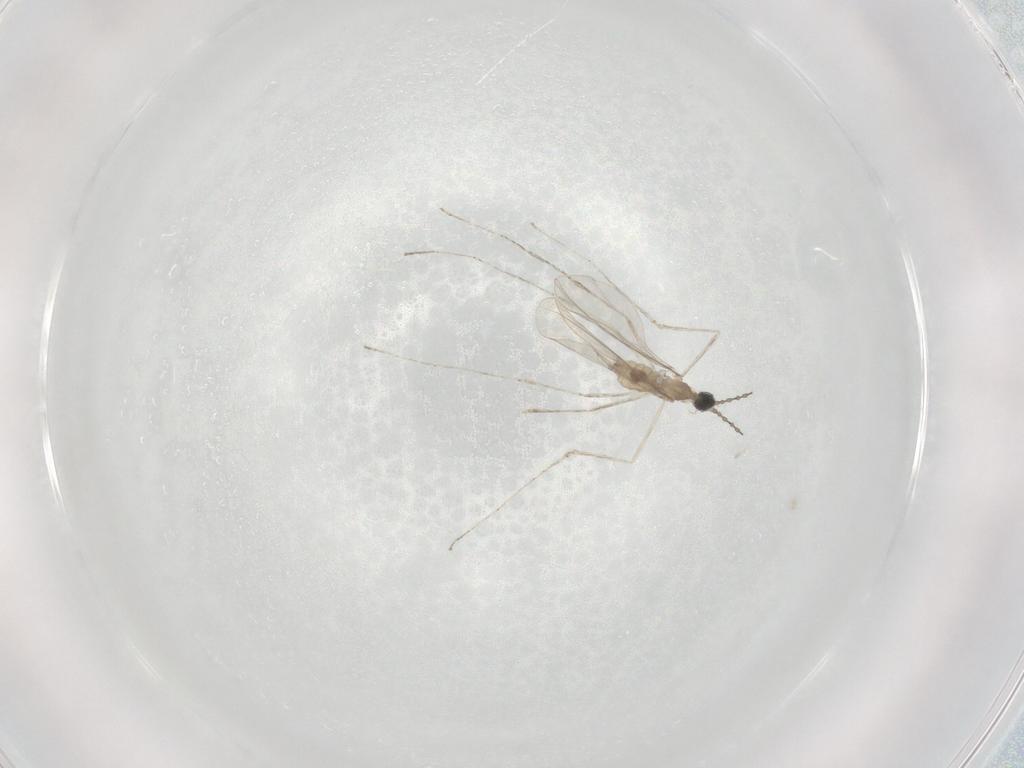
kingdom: Animalia
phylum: Arthropoda
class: Insecta
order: Diptera
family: Cecidomyiidae
